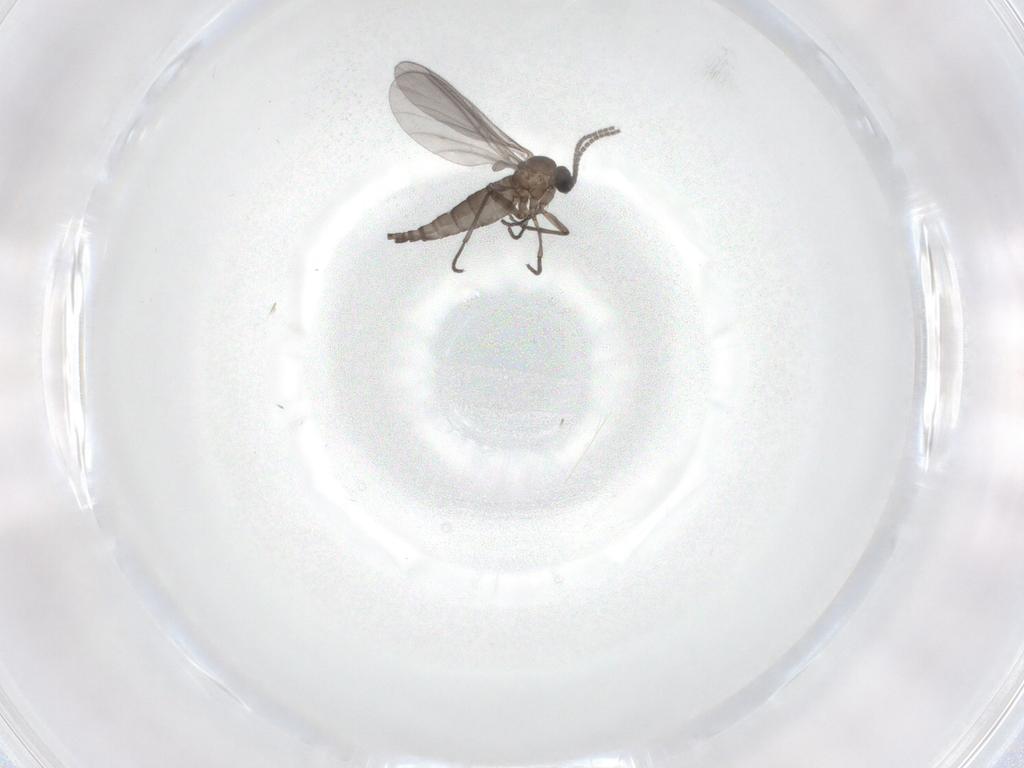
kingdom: Animalia
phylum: Arthropoda
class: Insecta
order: Diptera
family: Sciaridae
